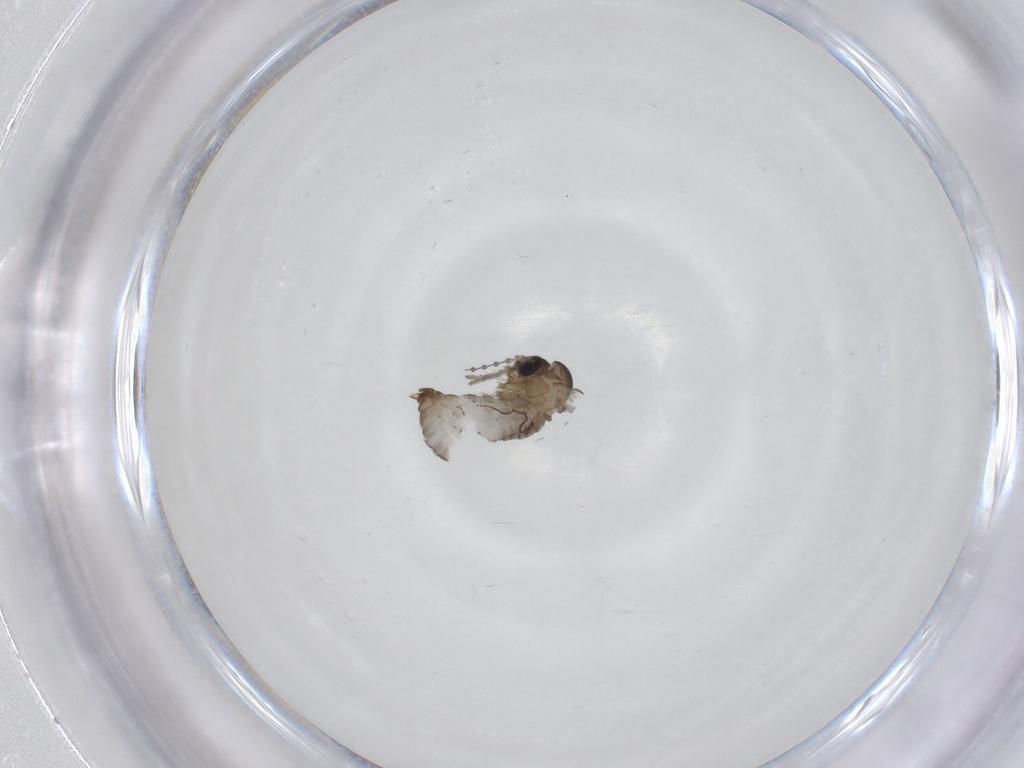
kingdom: Animalia
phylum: Arthropoda
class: Insecta
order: Diptera
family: Psychodidae
